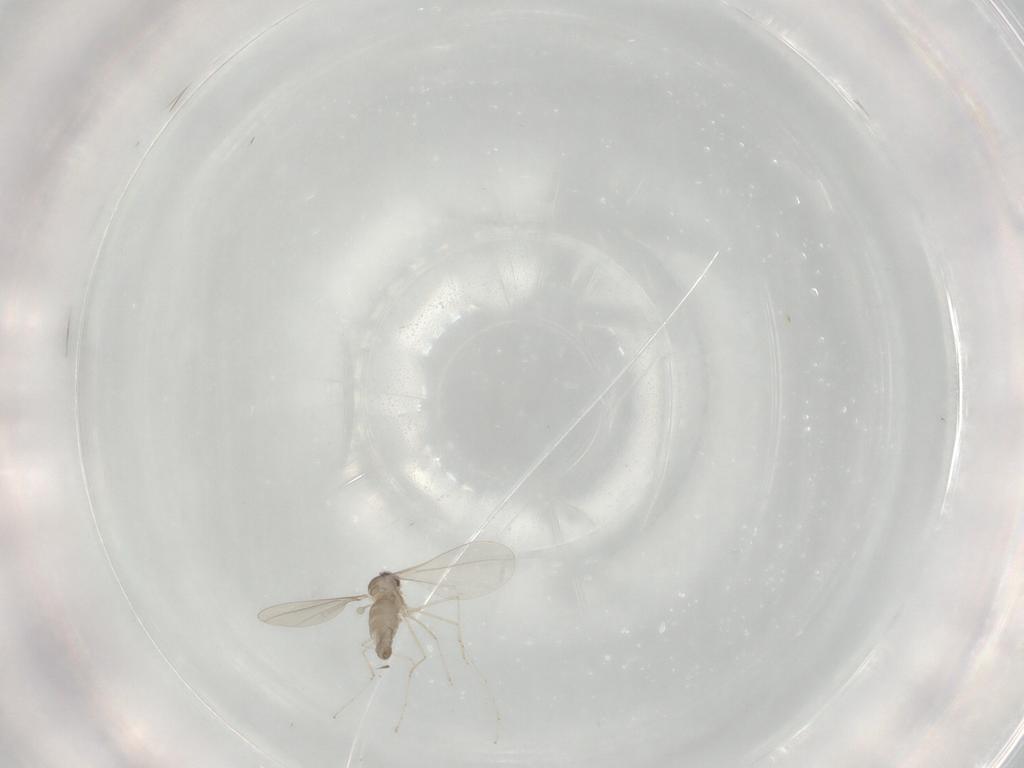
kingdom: Animalia
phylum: Arthropoda
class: Insecta
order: Diptera
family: Cecidomyiidae
